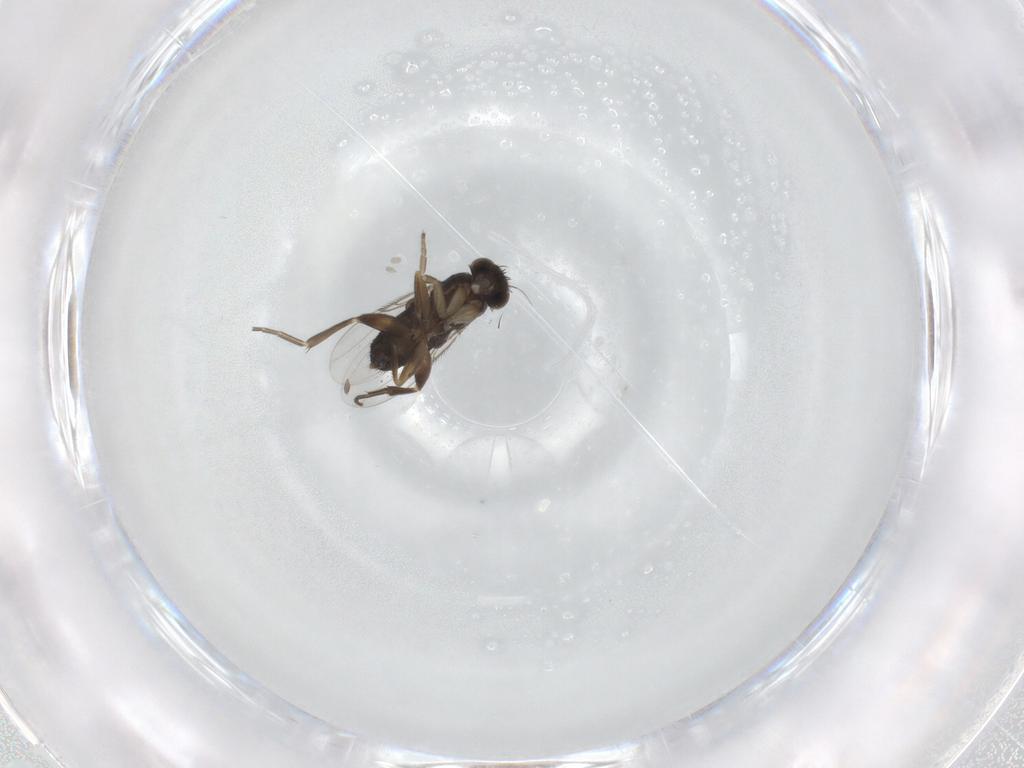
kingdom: Animalia
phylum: Arthropoda
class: Insecta
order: Diptera
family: Phoridae
